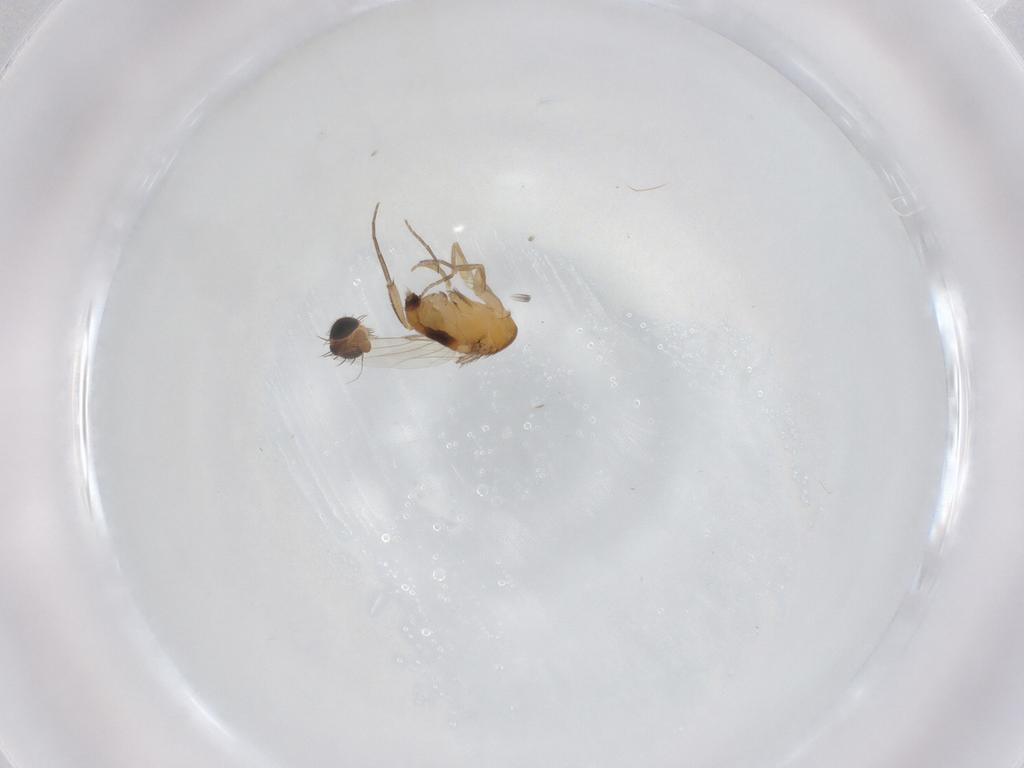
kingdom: Animalia
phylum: Arthropoda
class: Insecta
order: Diptera
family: Phoridae
